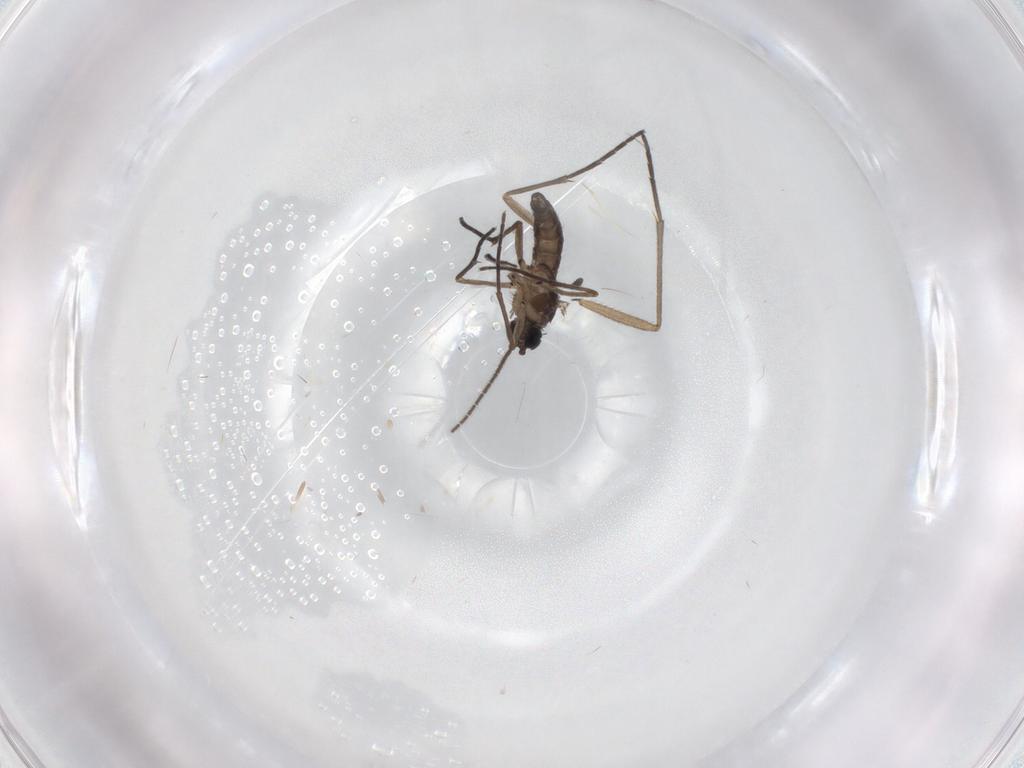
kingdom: Animalia
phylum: Arthropoda
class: Insecta
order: Diptera
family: Sciaridae
